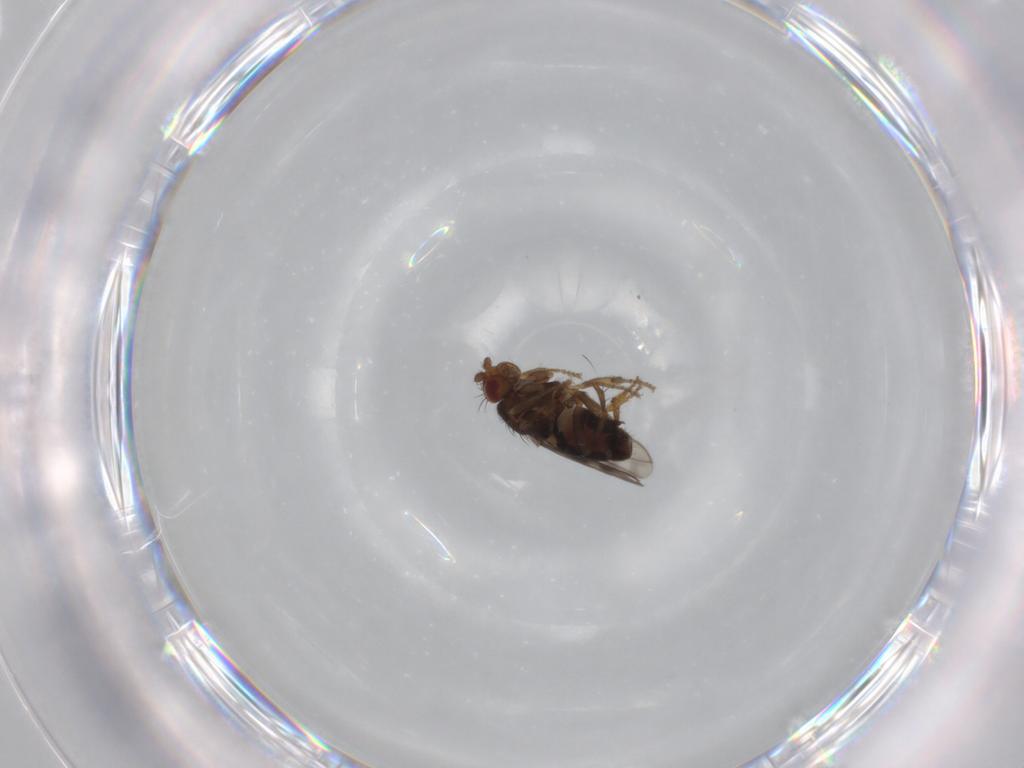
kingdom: Animalia
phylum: Arthropoda
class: Insecta
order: Diptera
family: Sphaeroceridae
